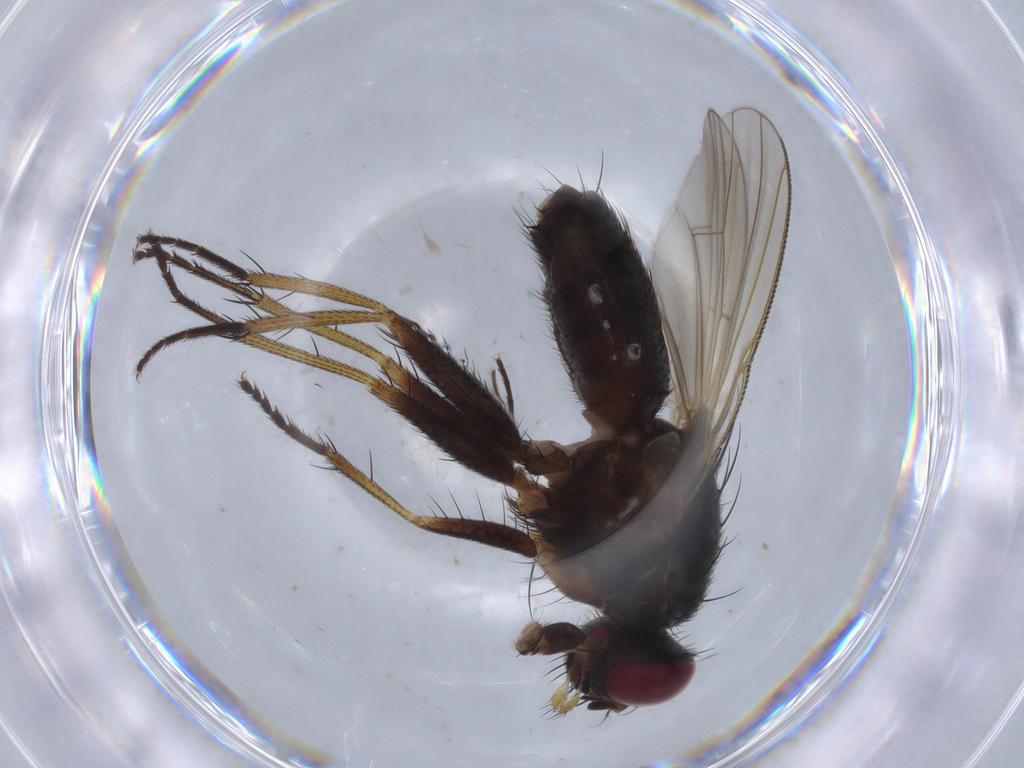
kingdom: Animalia
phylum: Arthropoda
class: Insecta
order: Diptera
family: Muscidae
